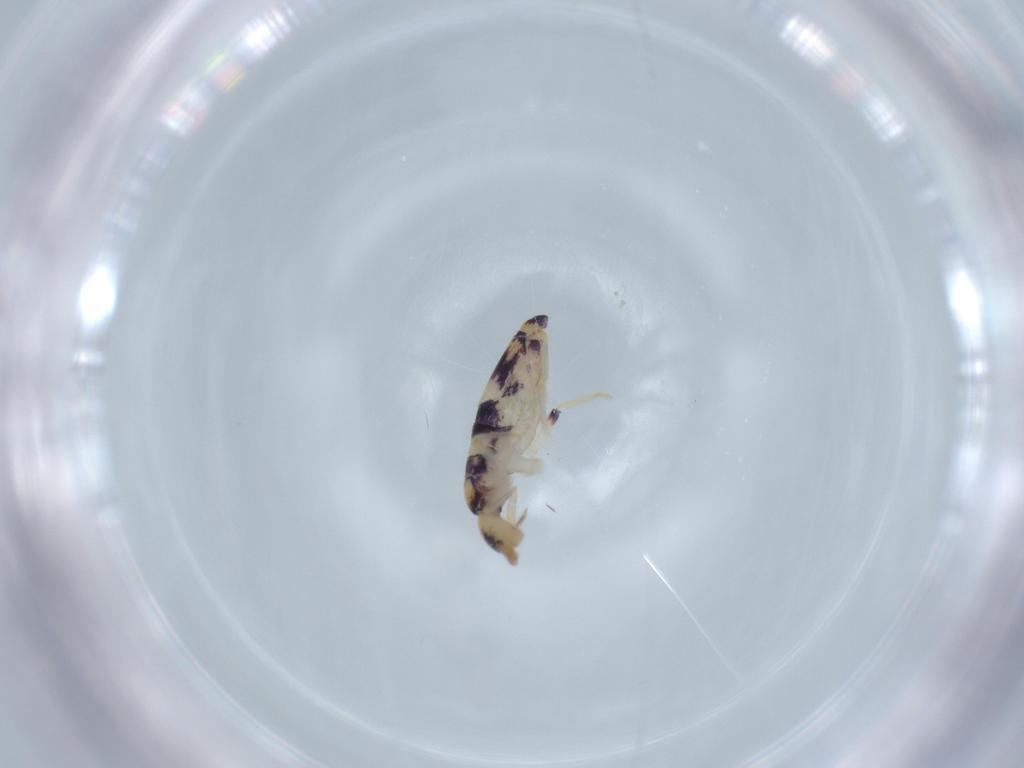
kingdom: Animalia
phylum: Arthropoda
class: Collembola
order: Entomobryomorpha
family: Entomobryidae
